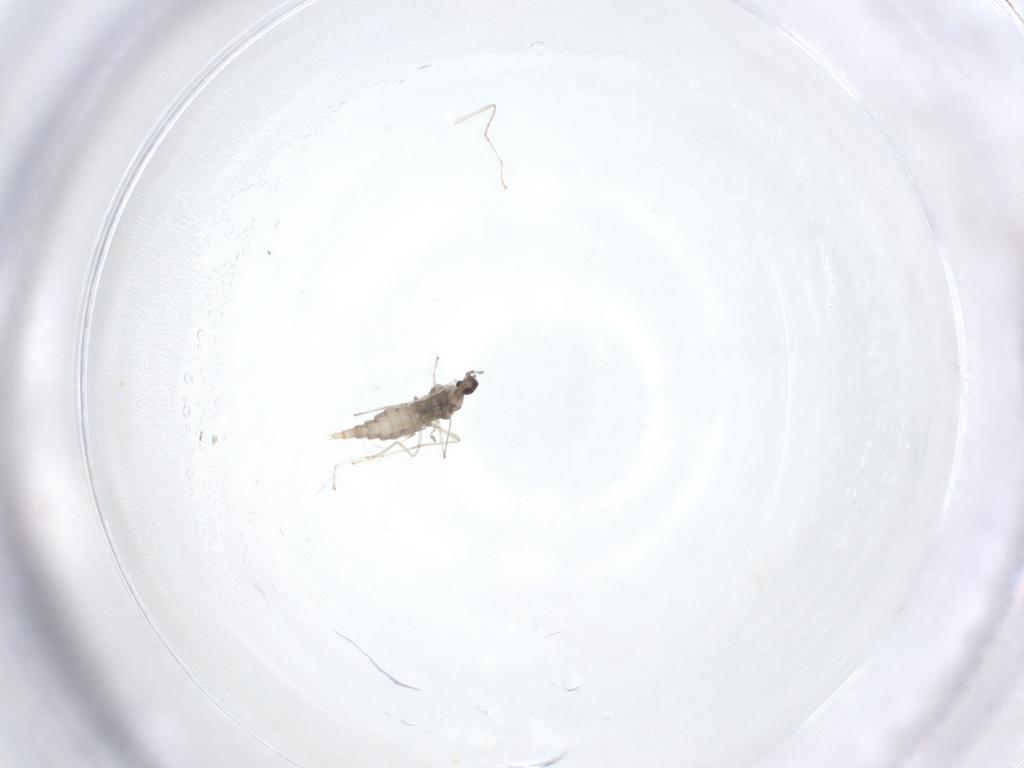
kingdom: Animalia
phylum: Arthropoda
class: Insecta
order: Diptera
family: Cecidomyiidae
